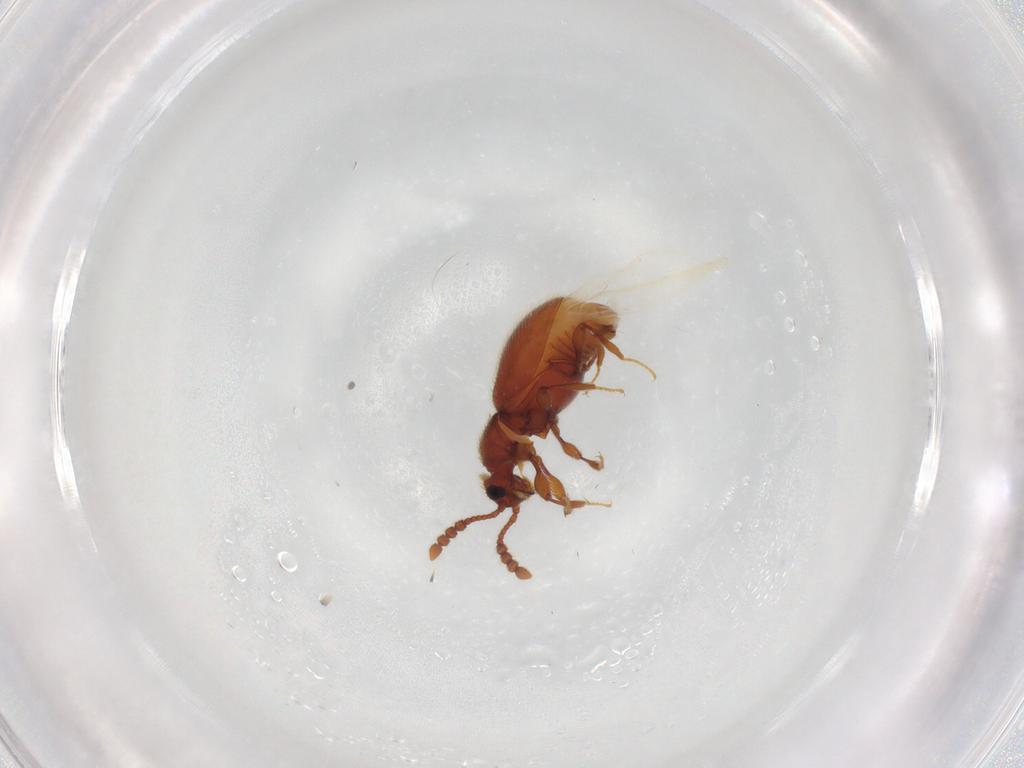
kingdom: Animalia
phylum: Arthropoda
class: Insecta
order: Coleoptera
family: Staphylinidae
